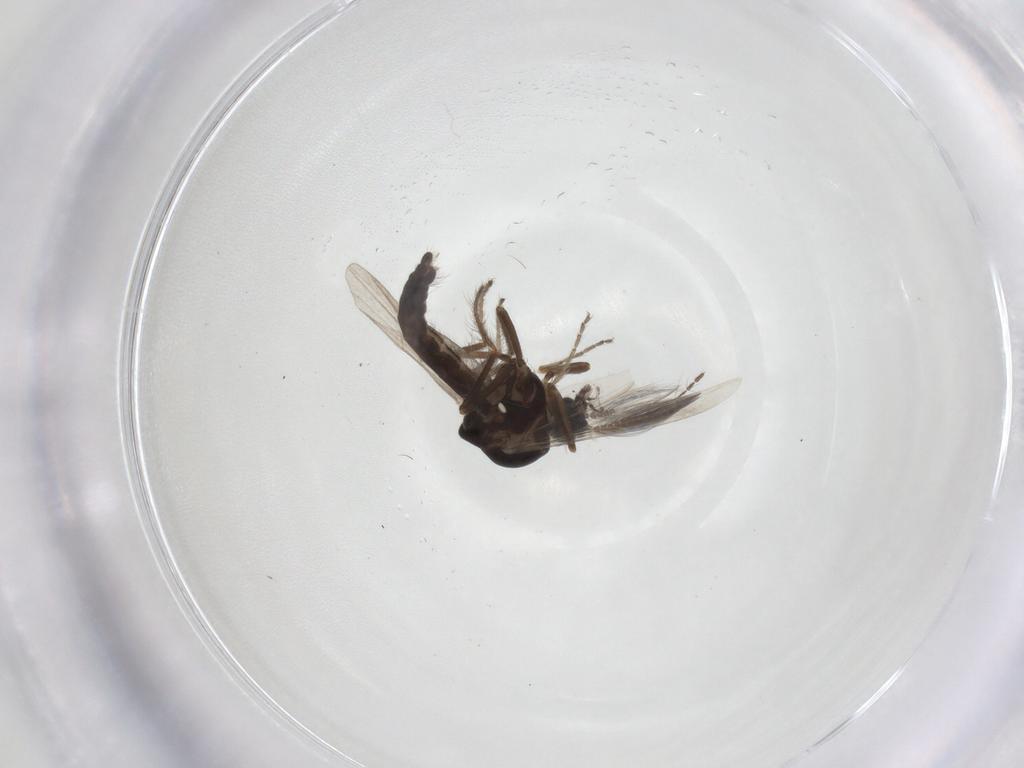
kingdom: Animalia
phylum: Arthropoda
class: Insecta
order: Diptera
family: Ceratopogonidae
